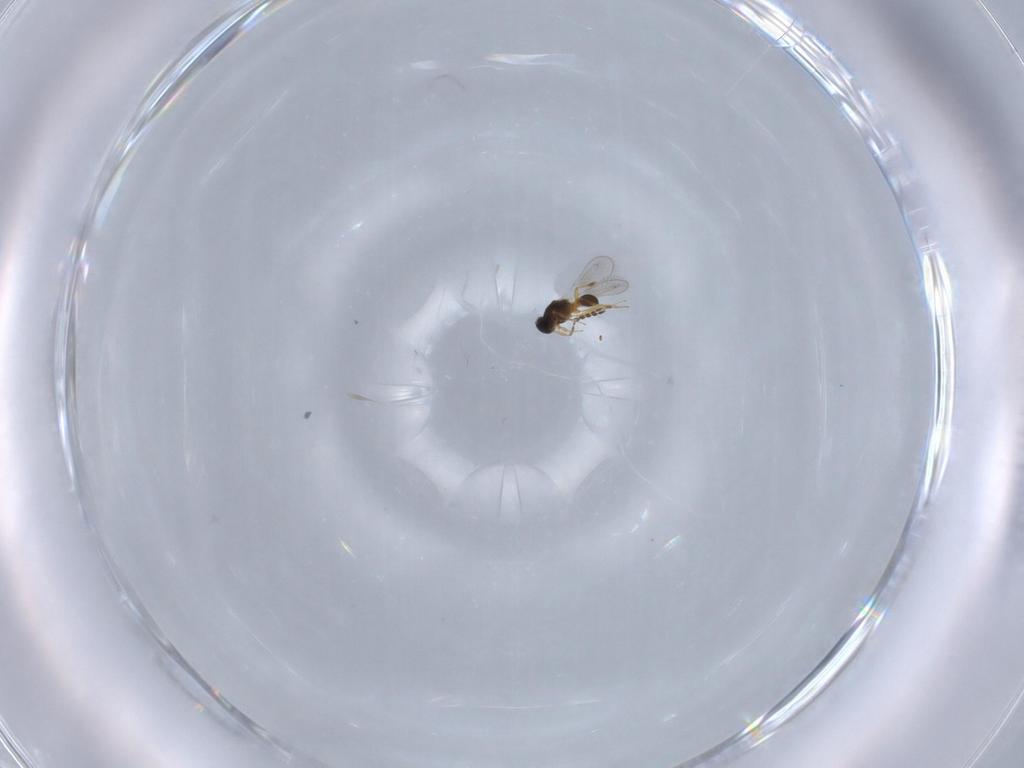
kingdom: Animalia
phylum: Arthropoda
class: Insecta
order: Hymenoptera
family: Platygastridae
